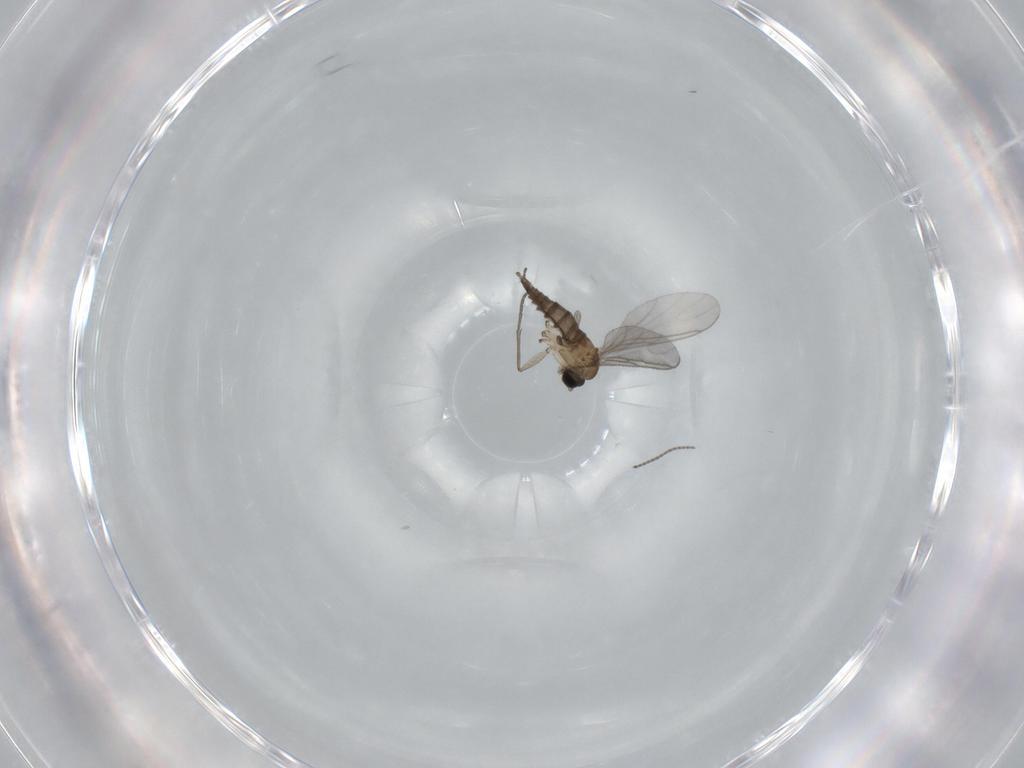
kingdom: Animalia
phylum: Arthropoda
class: Insecta
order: Diptera
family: Sciaridae
